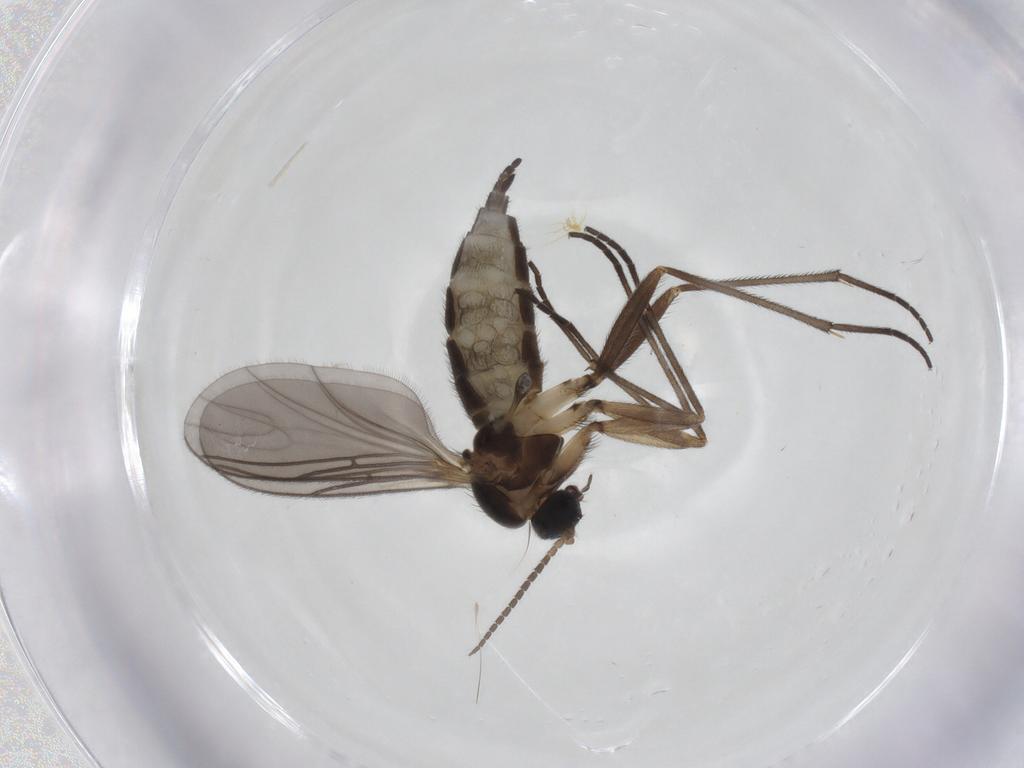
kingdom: Animalia
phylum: Arthropoda
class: Insecta
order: Diptera
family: Sciaridae
